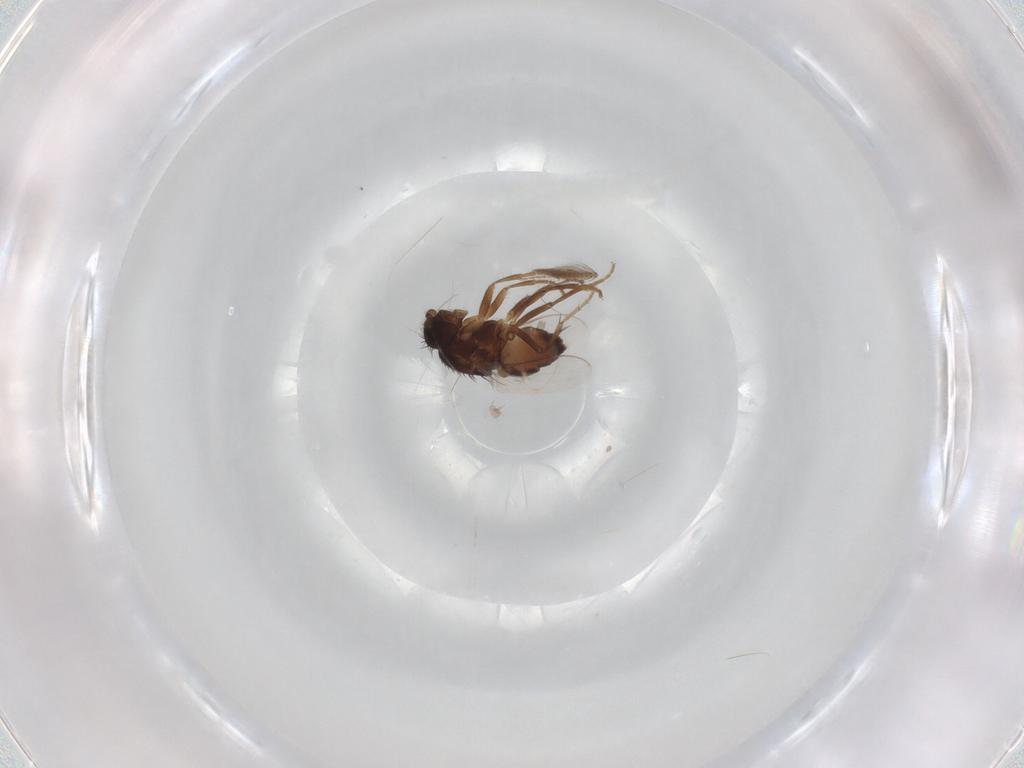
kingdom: Animalia
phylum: Arthropoda
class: Insecta
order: Diptera
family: Sphaeroceridae
